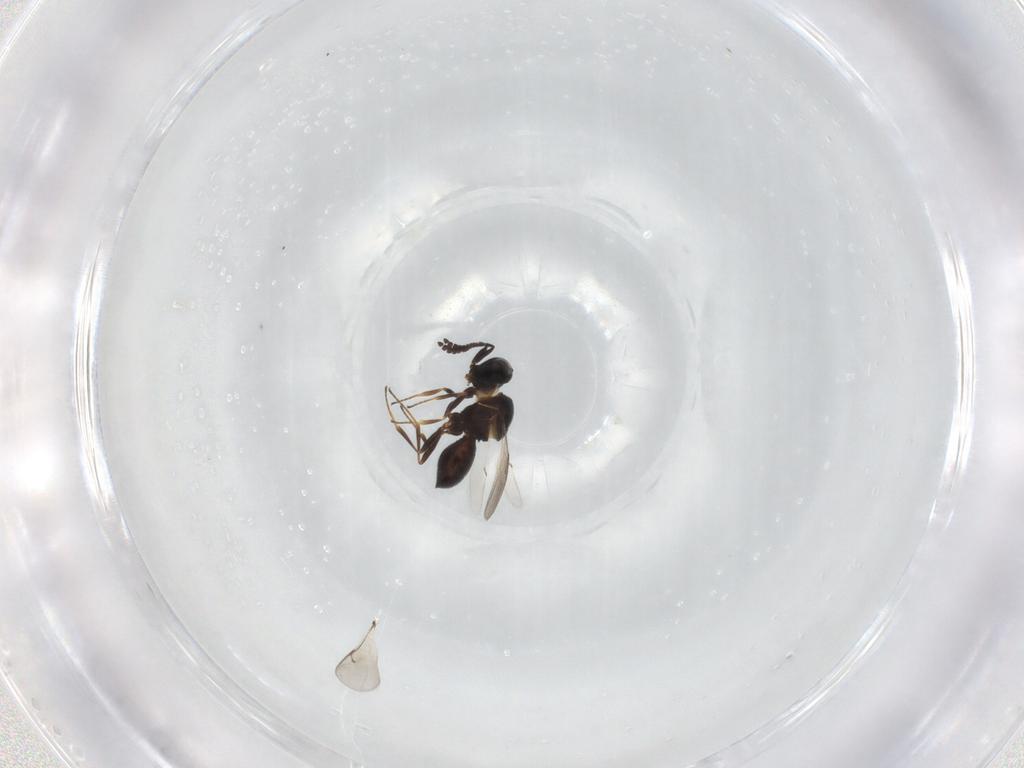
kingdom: Animalia
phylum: Arthropoda
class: Insecta
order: Hymenoptera
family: Scelionidae
